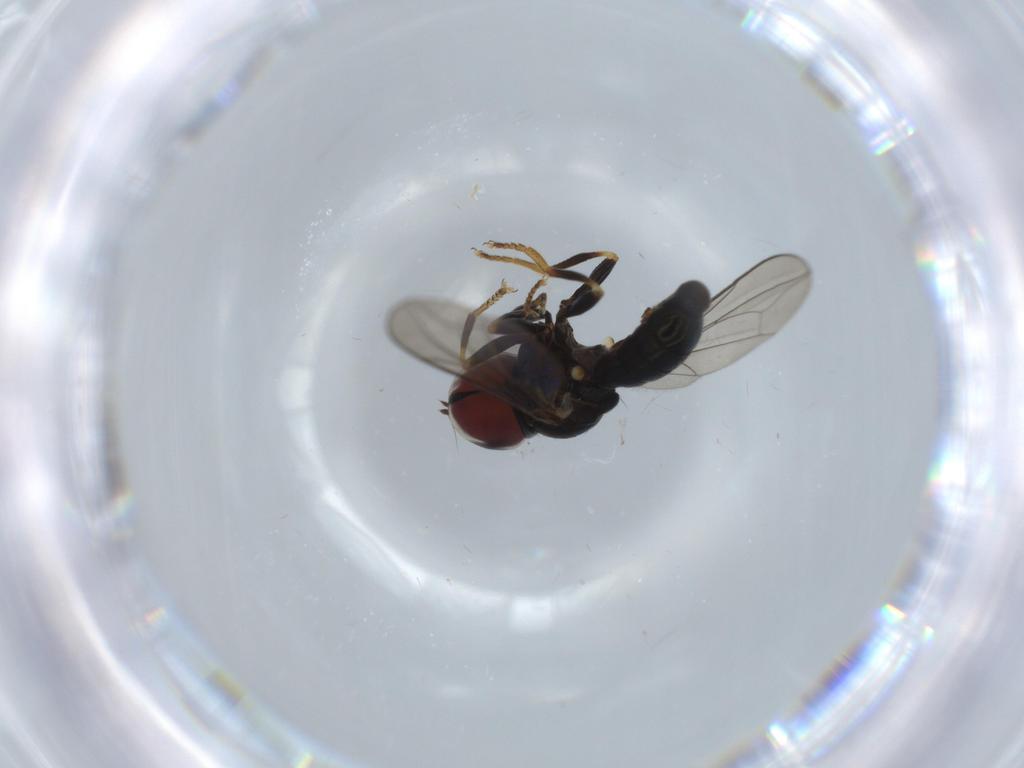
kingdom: Animalia
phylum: Arthropoda
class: Insecta
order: Diptera
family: Pipunculidae
